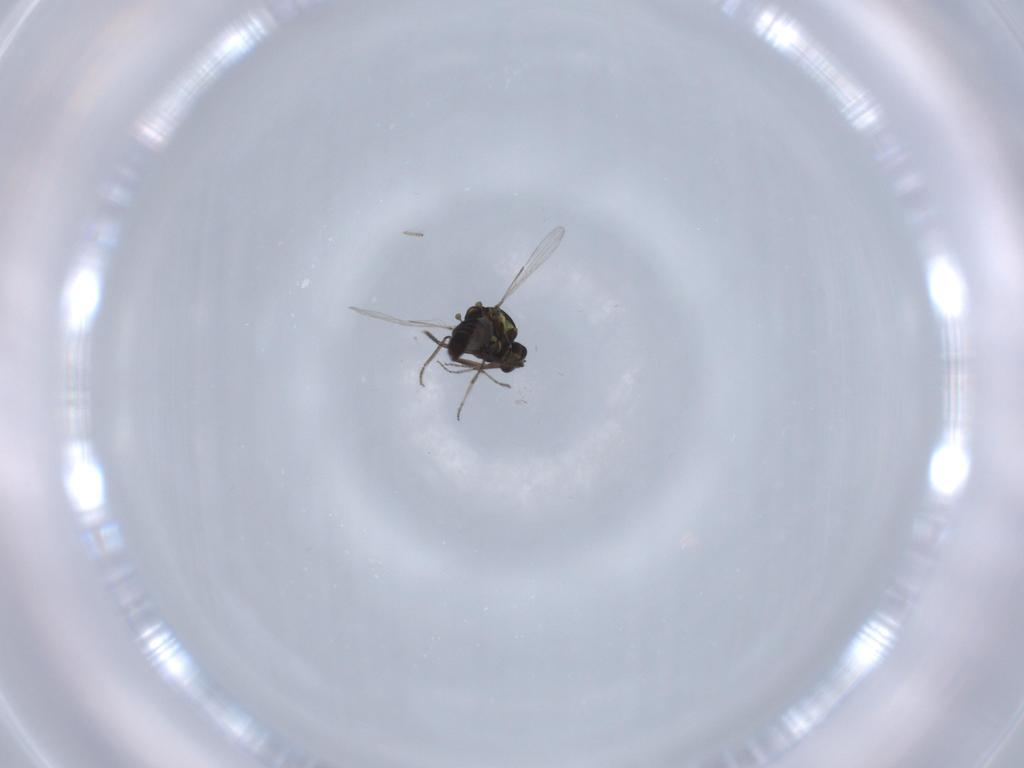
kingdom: Animalia
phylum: Arthropoda
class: Insecta
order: Diptera
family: Ceratopogonidae
